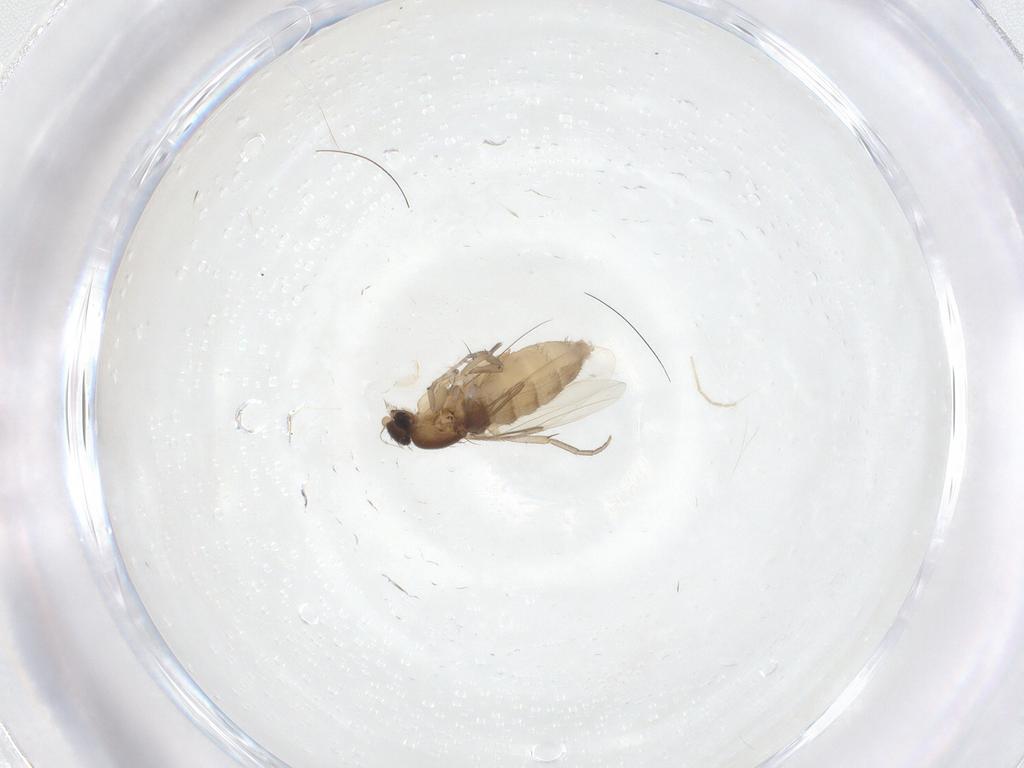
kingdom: Animalia
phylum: Arthropoda
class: Insecta
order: Diptera
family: Phoridae
